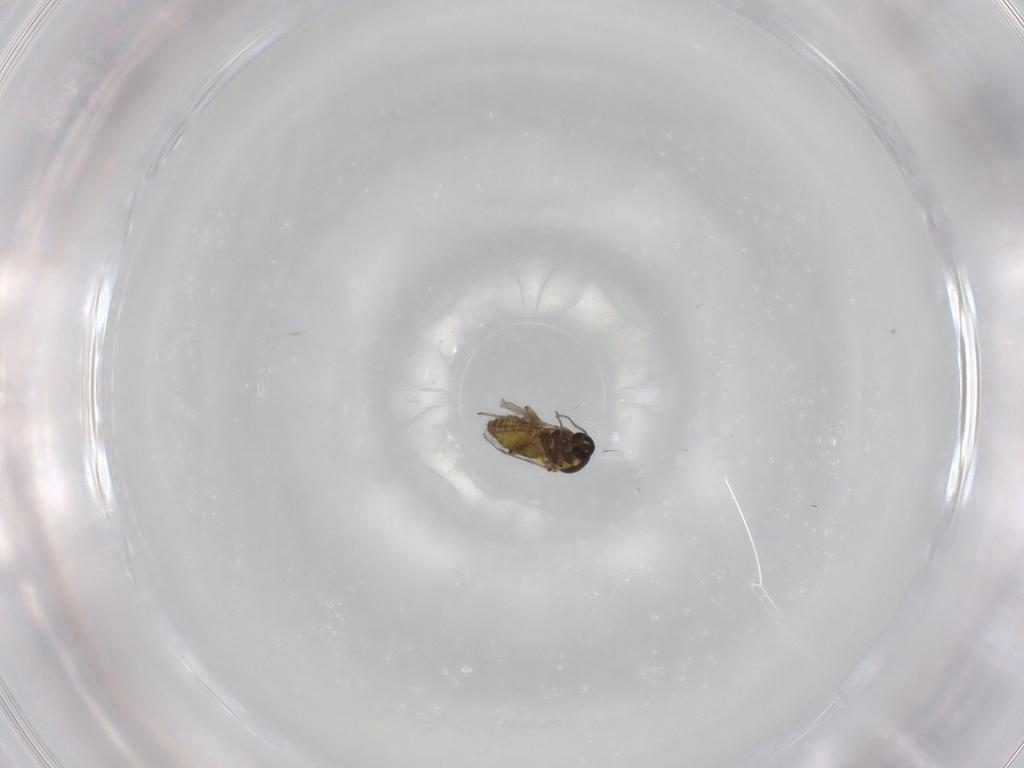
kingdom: Animalia
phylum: Arthropoda
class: Insecta
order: Diptera
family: Ceratopogonidae
